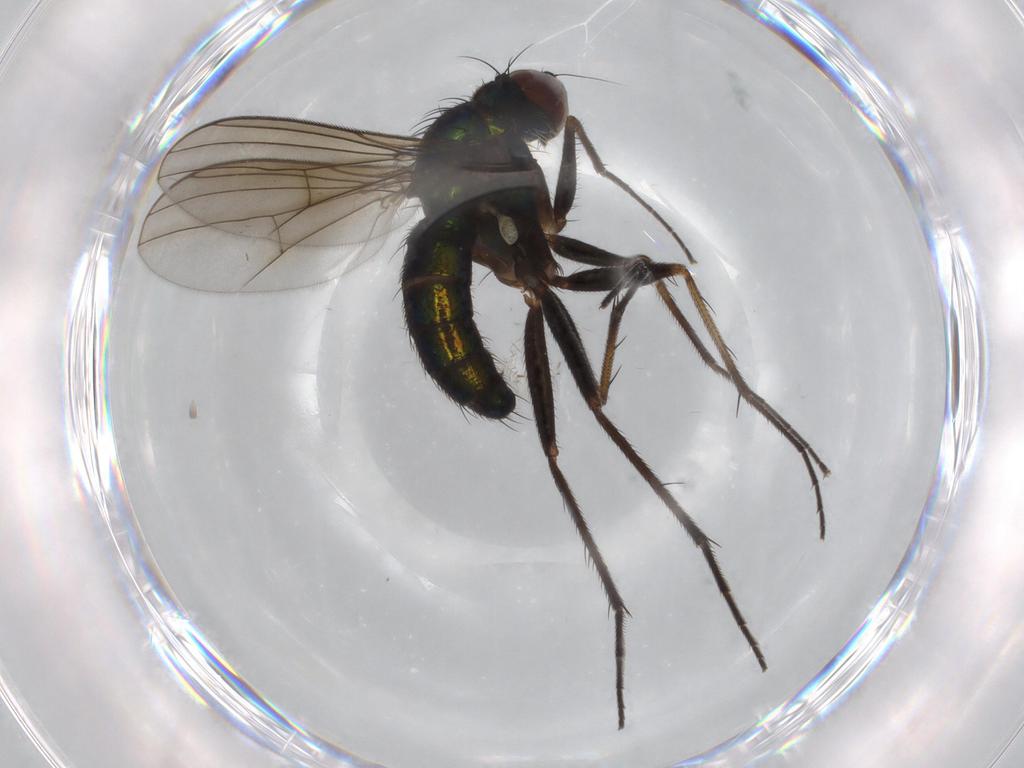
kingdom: Animalia
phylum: Arthropoda
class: Insecta
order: Diptera
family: Dolichopodidae
